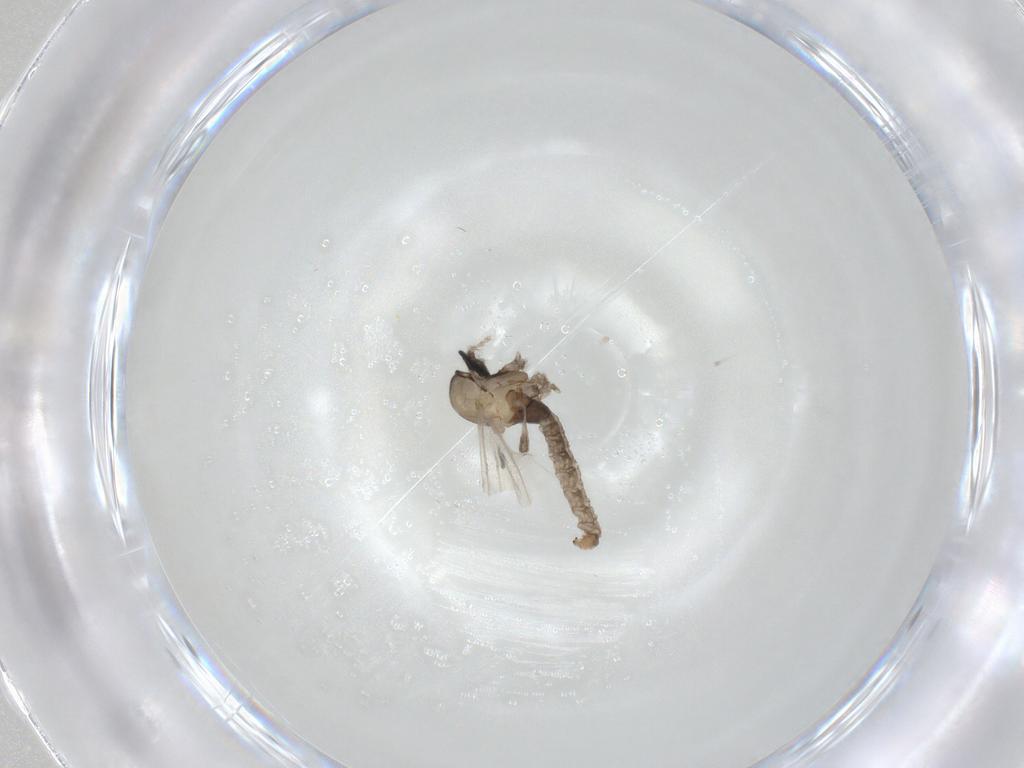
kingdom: Animalia
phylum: Arthropoda
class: Insecta
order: Diptera
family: Cecidomyiidae
